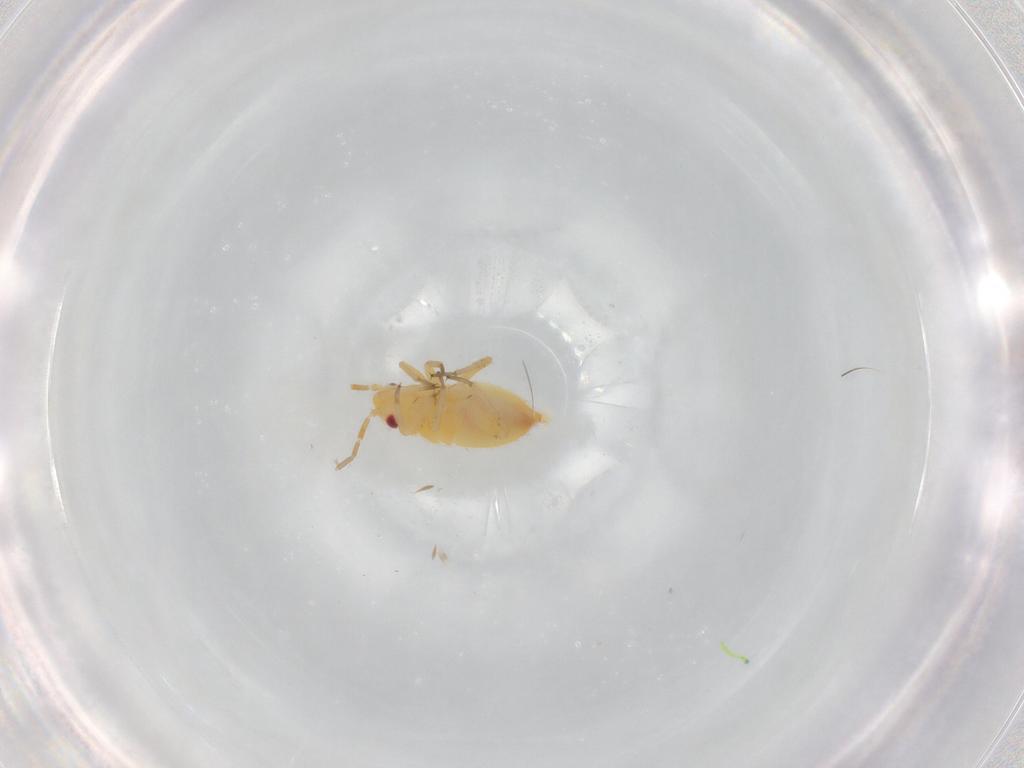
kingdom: Animalia
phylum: Arthropoda
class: Insecta
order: Hemiptera
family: Miridae
